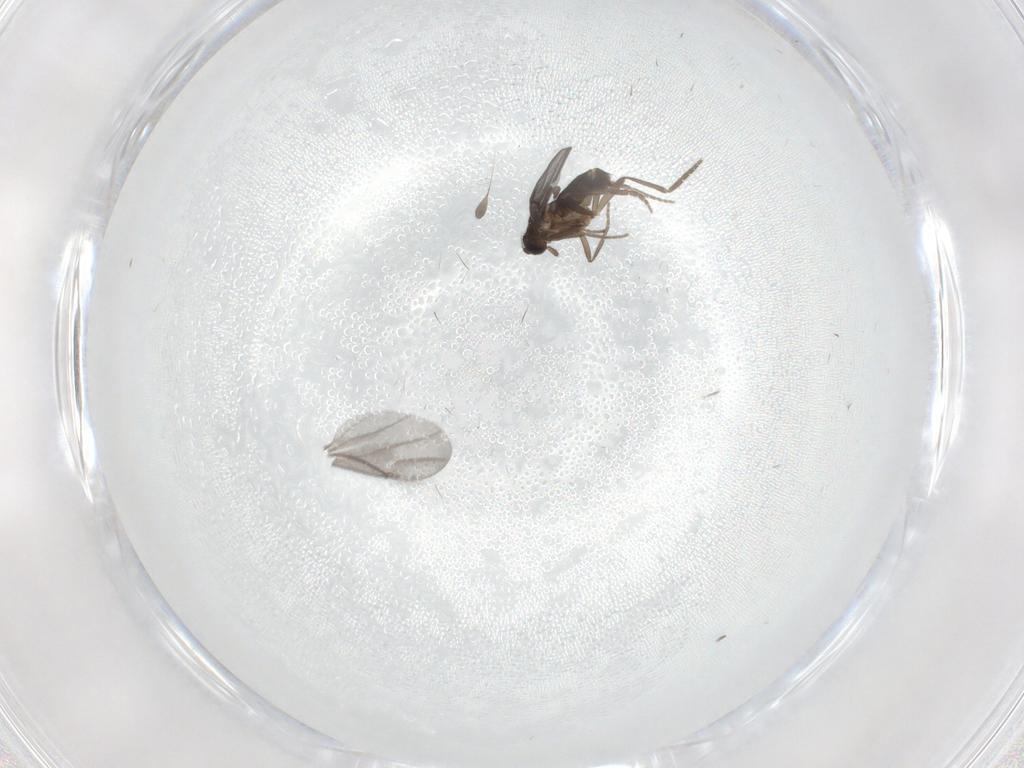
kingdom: Animalia
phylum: Arthropoda
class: Insecta
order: Diptera
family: Phoridae
